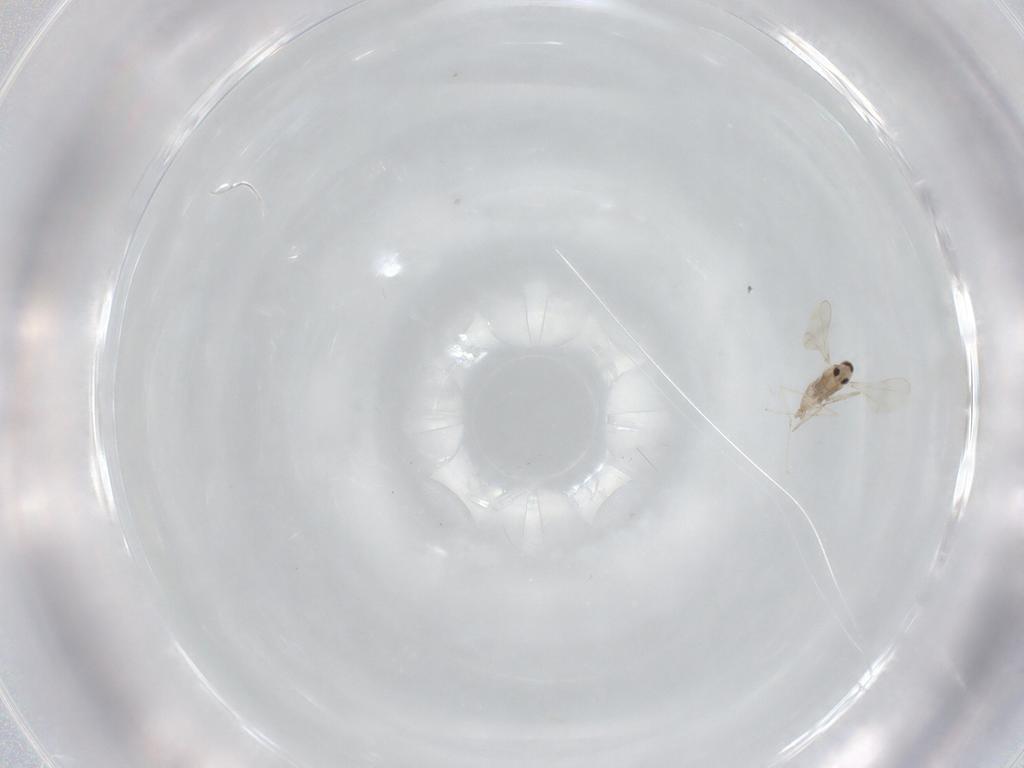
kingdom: Animalia
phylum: Arthropoda
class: Insecta
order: Diptera
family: Cecidomyiidae
